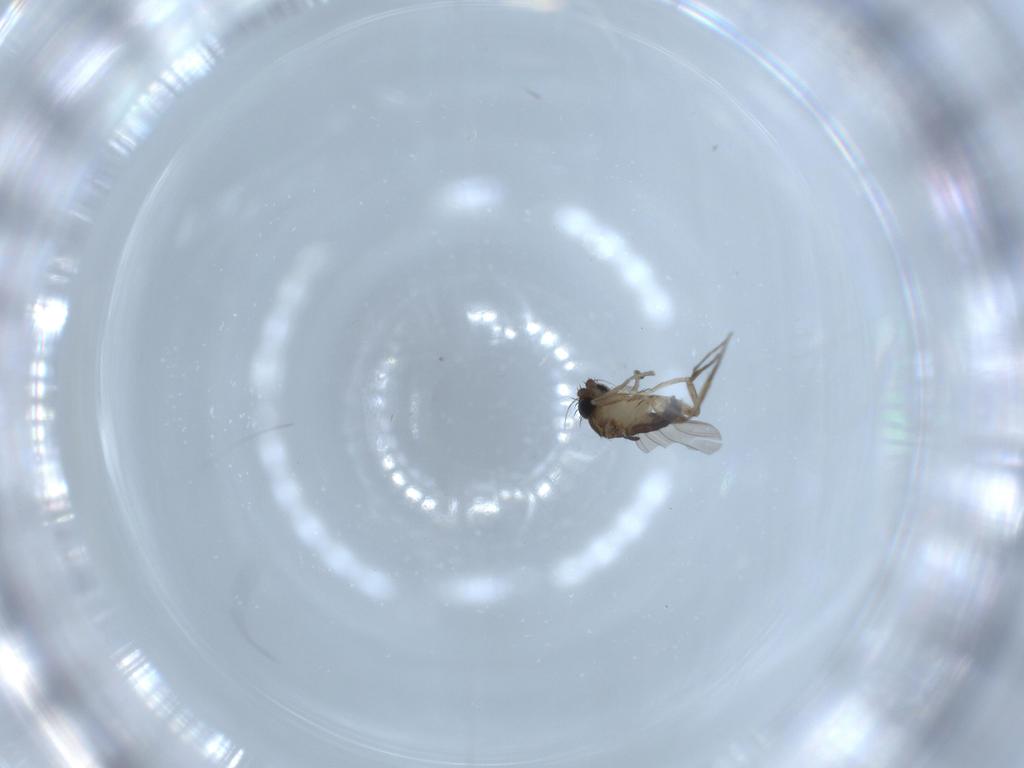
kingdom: Animalia
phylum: Arthropoda
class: Insecta
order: Diptera
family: Phoridae
